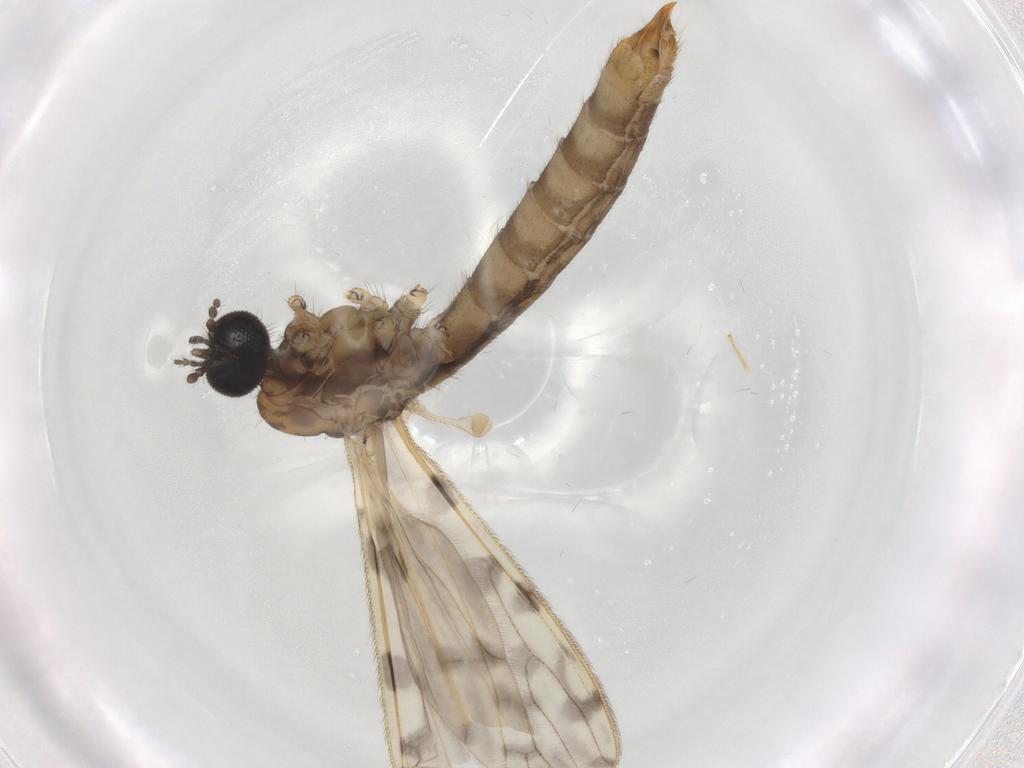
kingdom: Animalia
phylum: Arthropoda
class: Insecta
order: Diptera
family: Limoniidae
